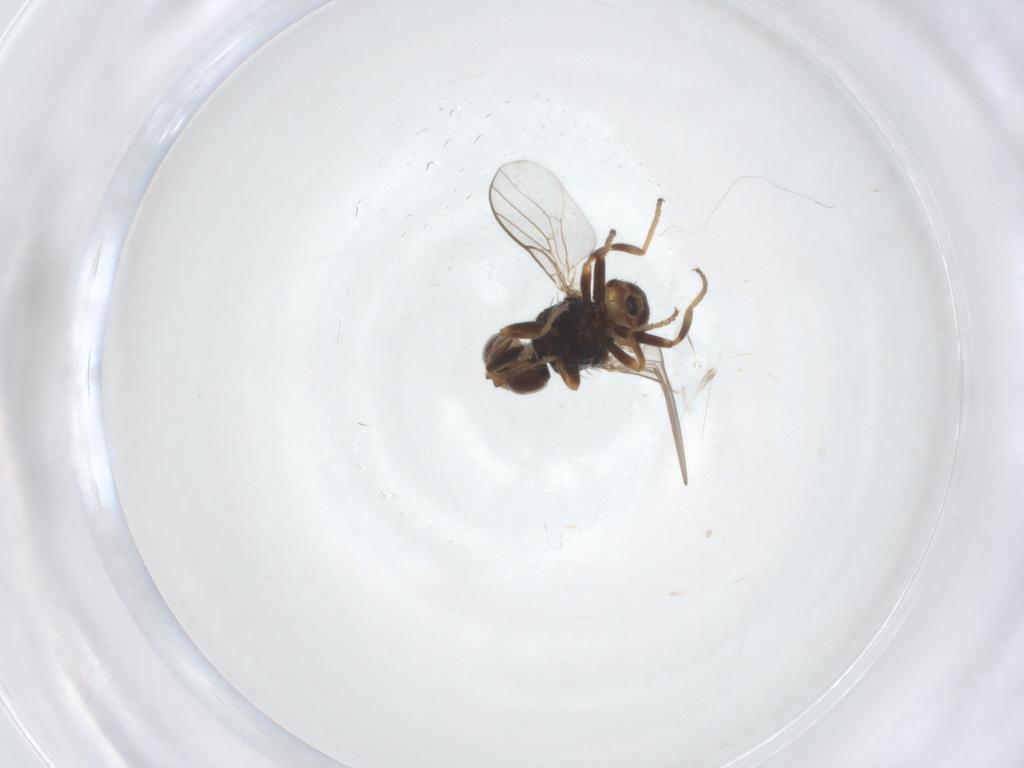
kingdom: Animalia
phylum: Arthropoda
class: Insecta
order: Diptera
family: Chloropidae
